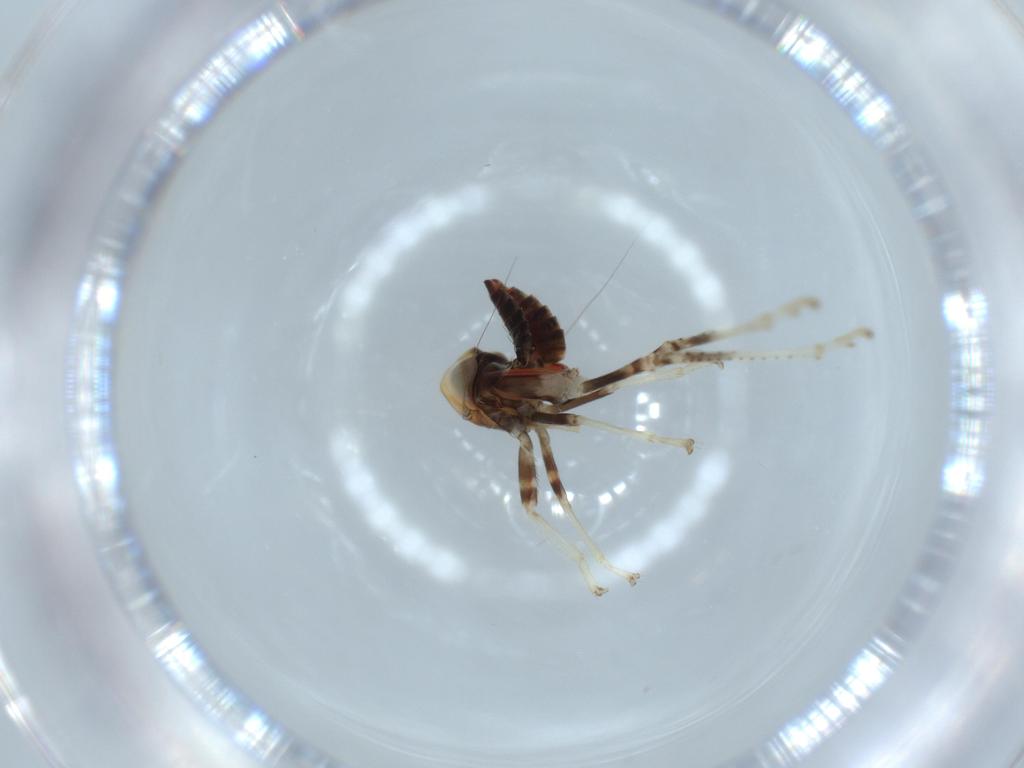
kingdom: Animalia
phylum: Arthropoda
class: Insecta
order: Hemiptera
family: Cicadellidae
